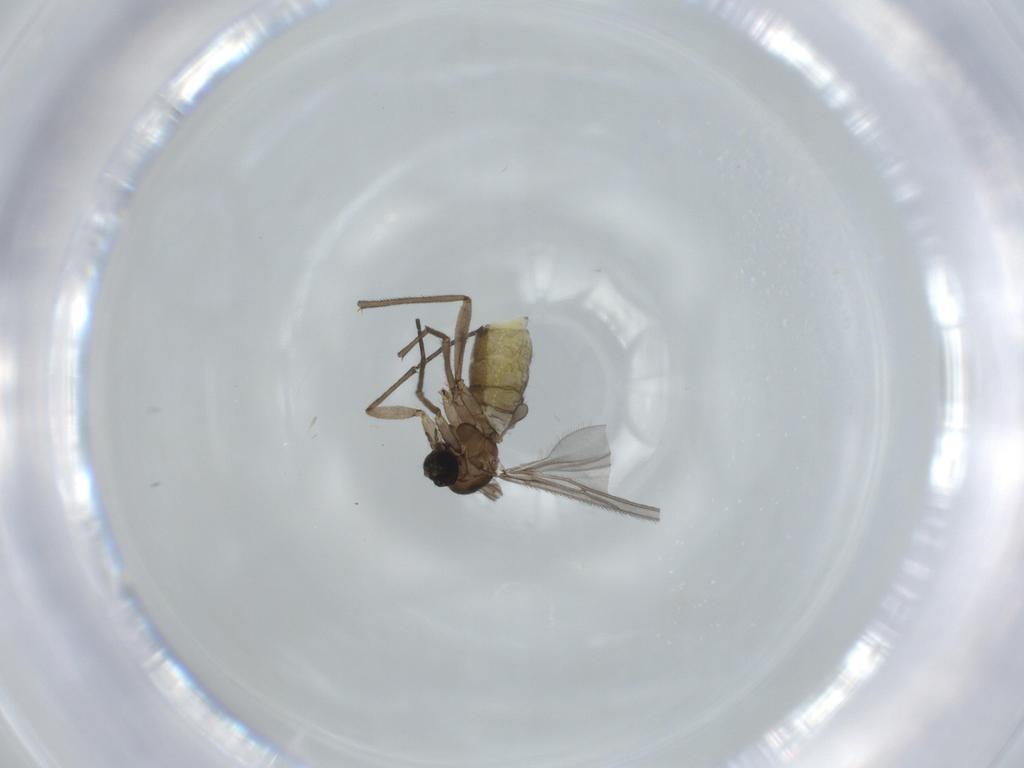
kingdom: Animalia
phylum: Arthropoda
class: Insecta
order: Diptera
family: Sciaridae
